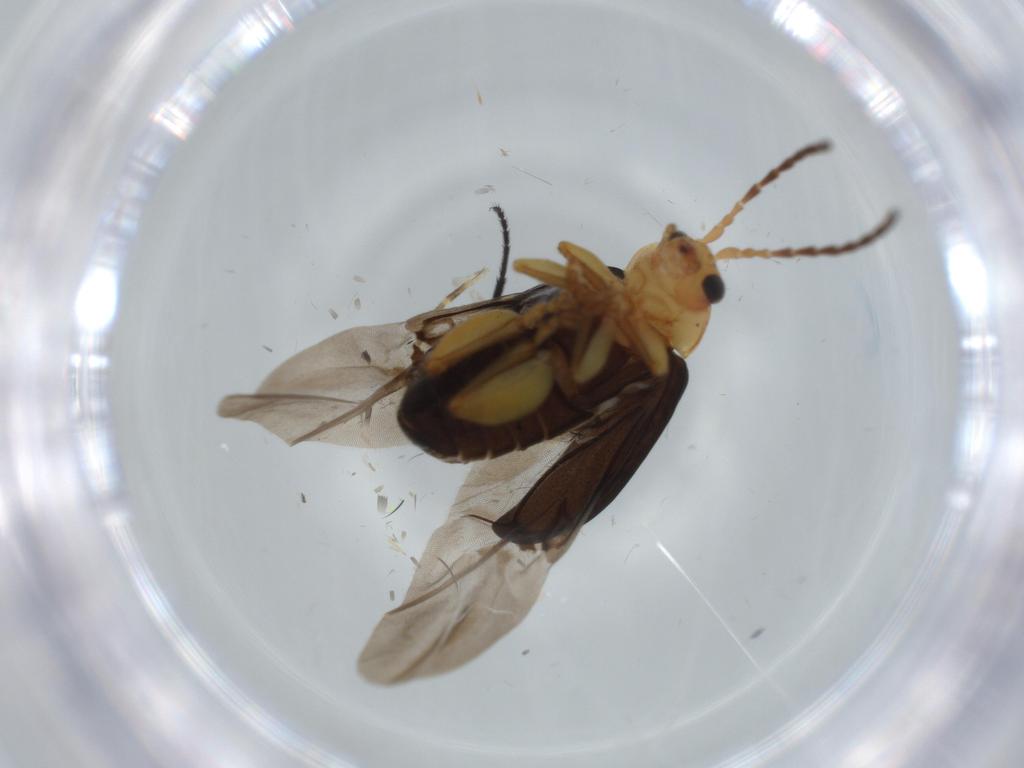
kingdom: Animalia
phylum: Arthropoda
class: Insecta
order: Coleoptera
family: Chrysomelidae
